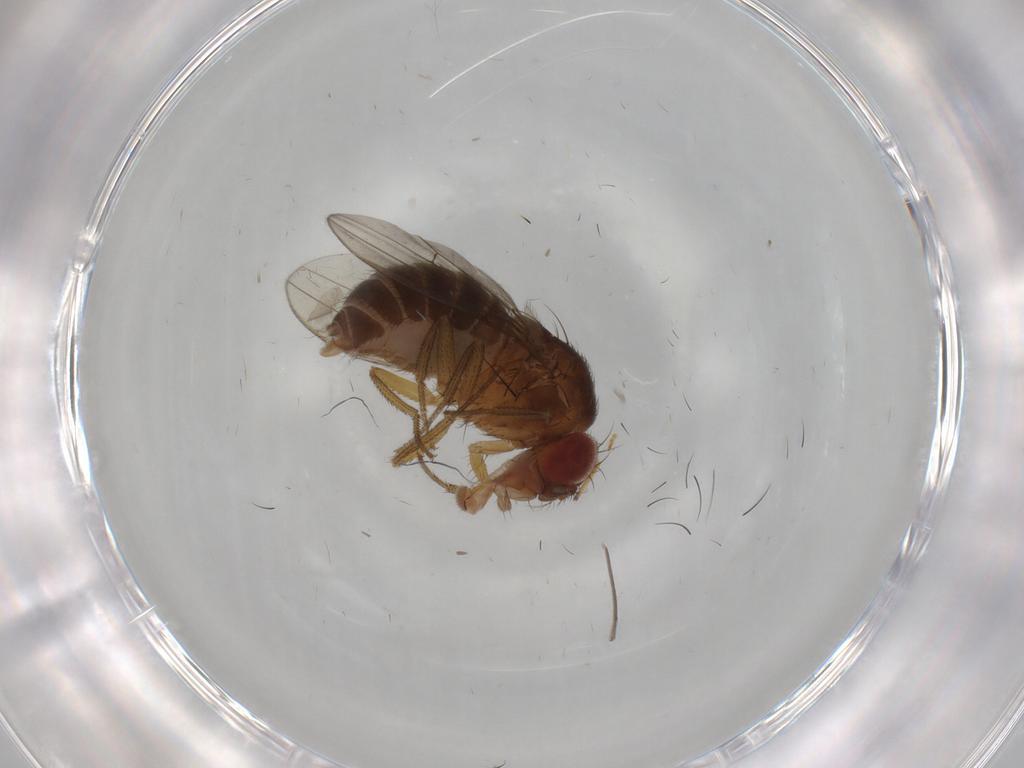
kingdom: Animalia
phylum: Arthropoda
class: Insecta
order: Diptera
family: Drosophilidae
